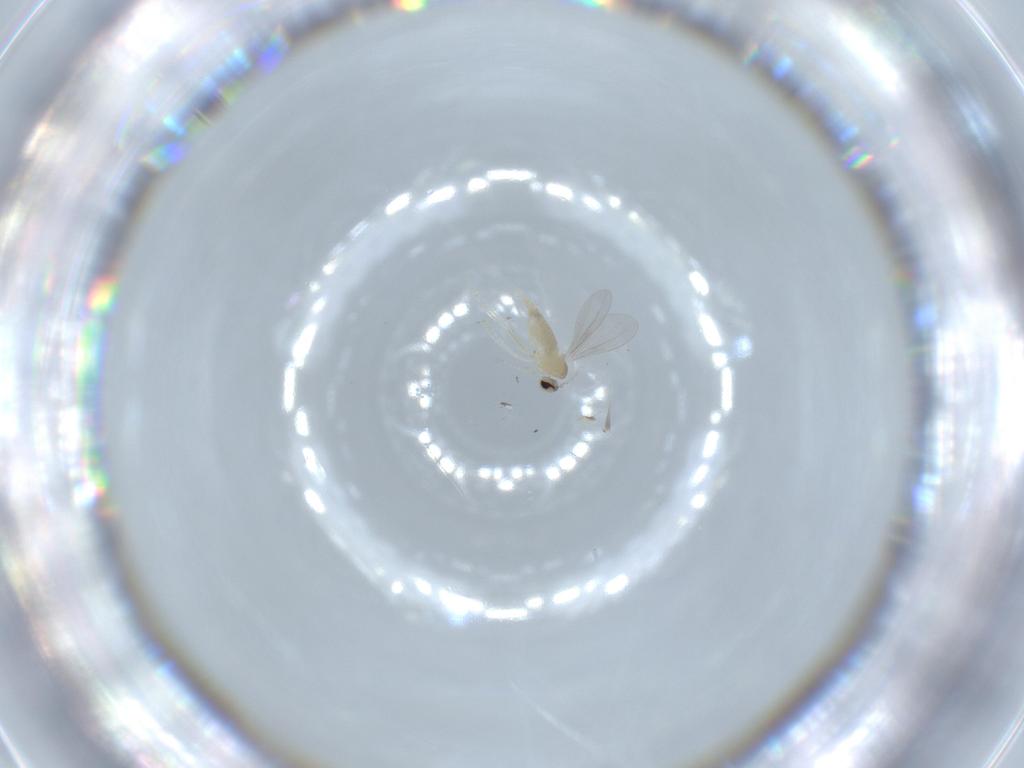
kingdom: Animalia
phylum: Arthropoda
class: Insecta
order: Diptera
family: Cecidomyiidae
